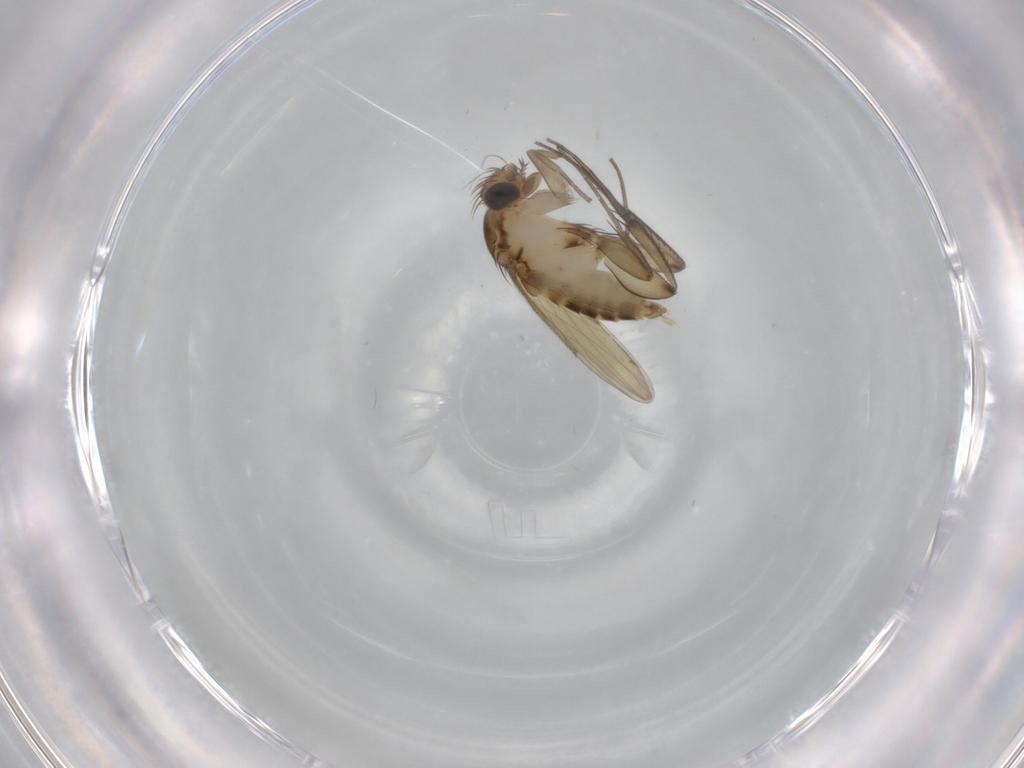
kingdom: Animalia
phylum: Arthropoda
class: Insecta
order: Diptera
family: Phoridae
